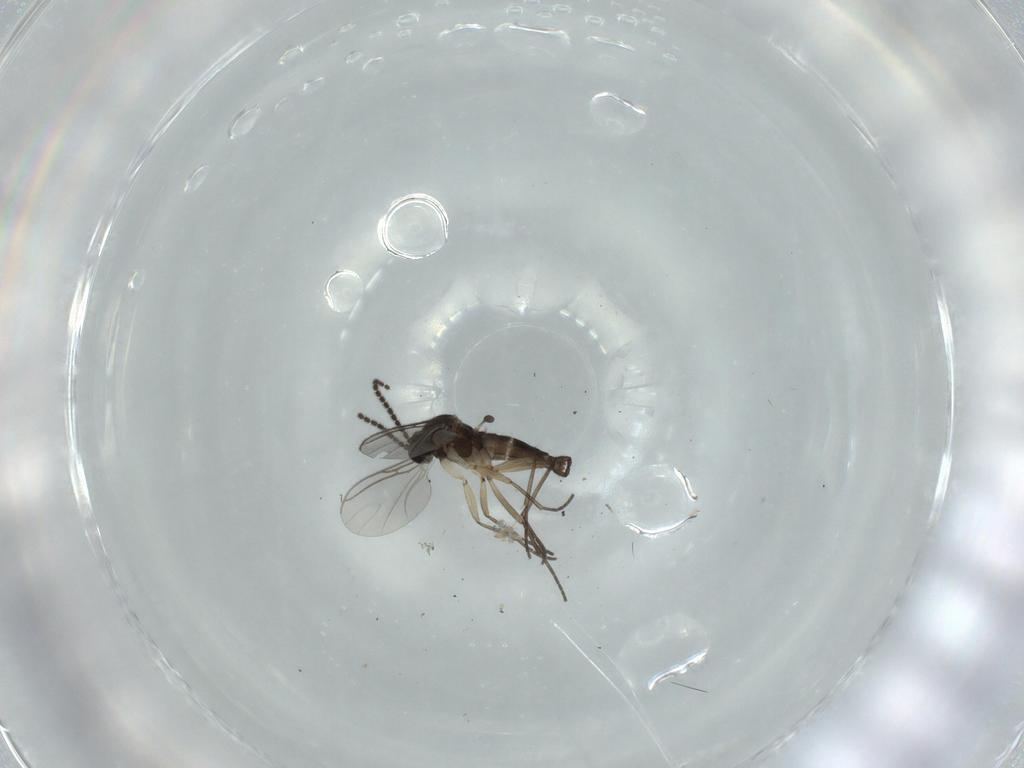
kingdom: Animalia
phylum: Arthropoda
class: Insecta
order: Diptera
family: Sciaridae
